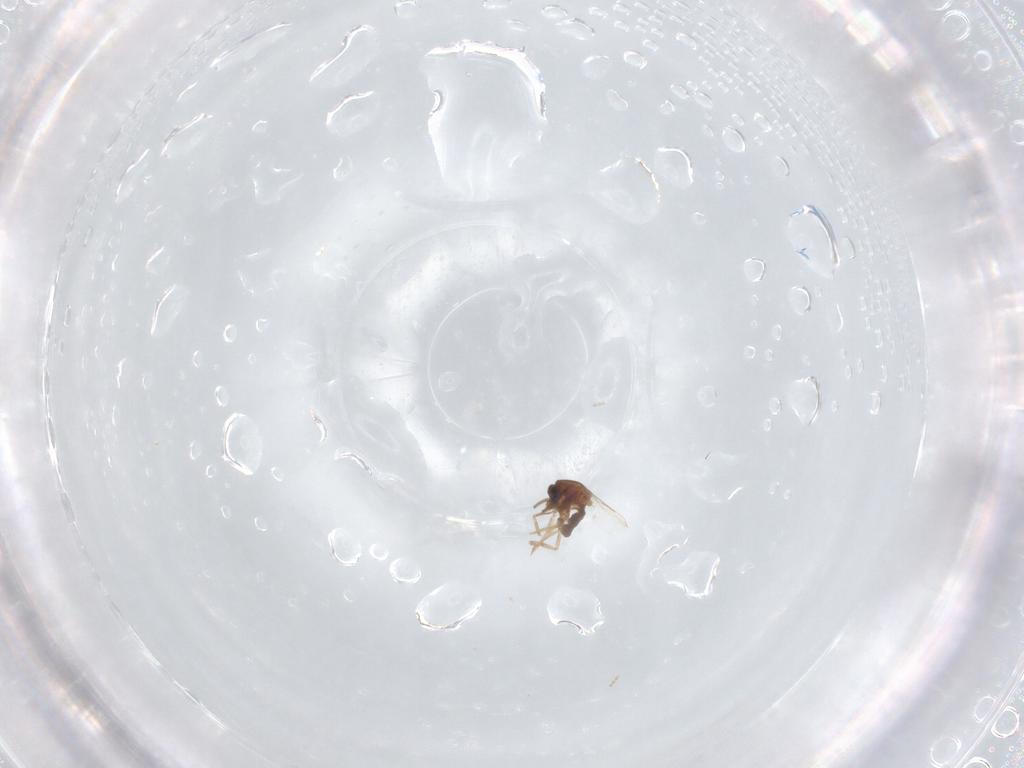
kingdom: Animalia
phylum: Arthropoda
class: Insecta
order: Diptera
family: Ceratopogonidae
